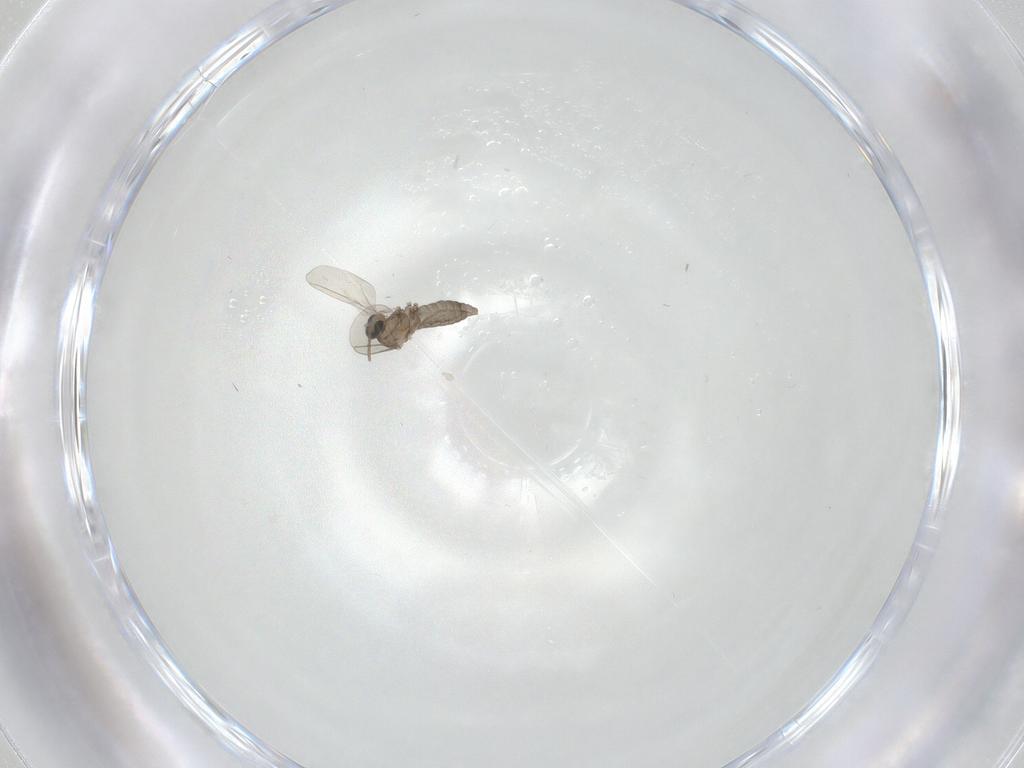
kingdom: Animalia
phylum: Arthropoda
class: Insecta
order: Diptera
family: Cecidomyiidae
